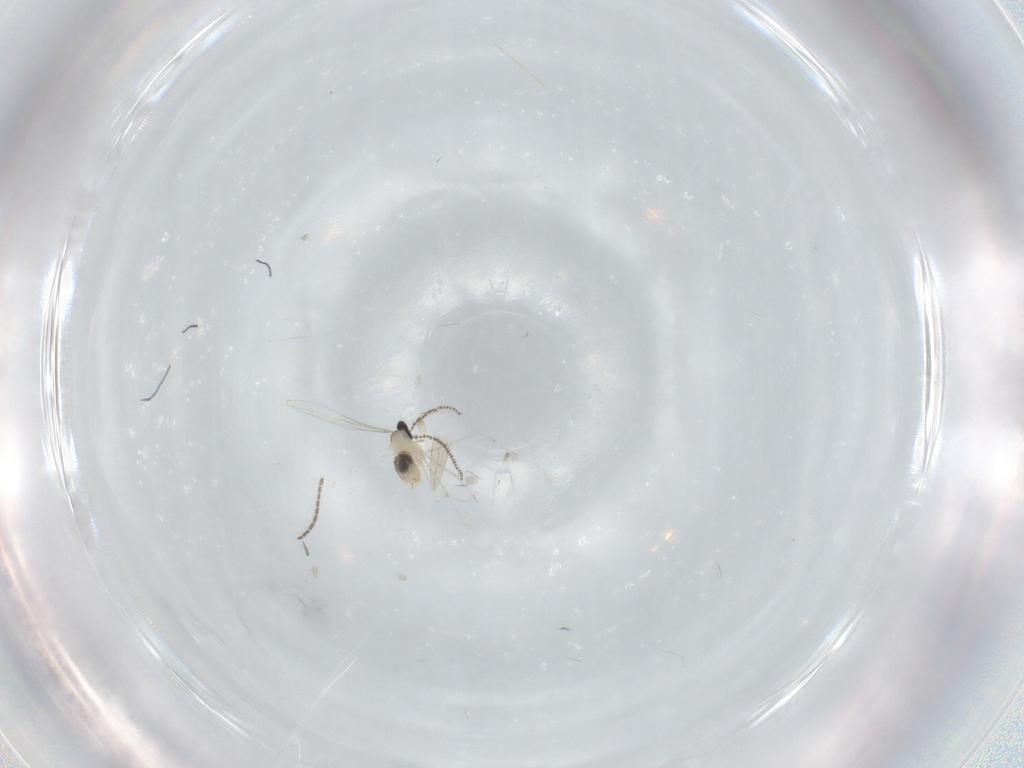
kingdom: Animalia
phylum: Arthropoda
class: Insecta
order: Diptera
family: Cecidomyiidae
